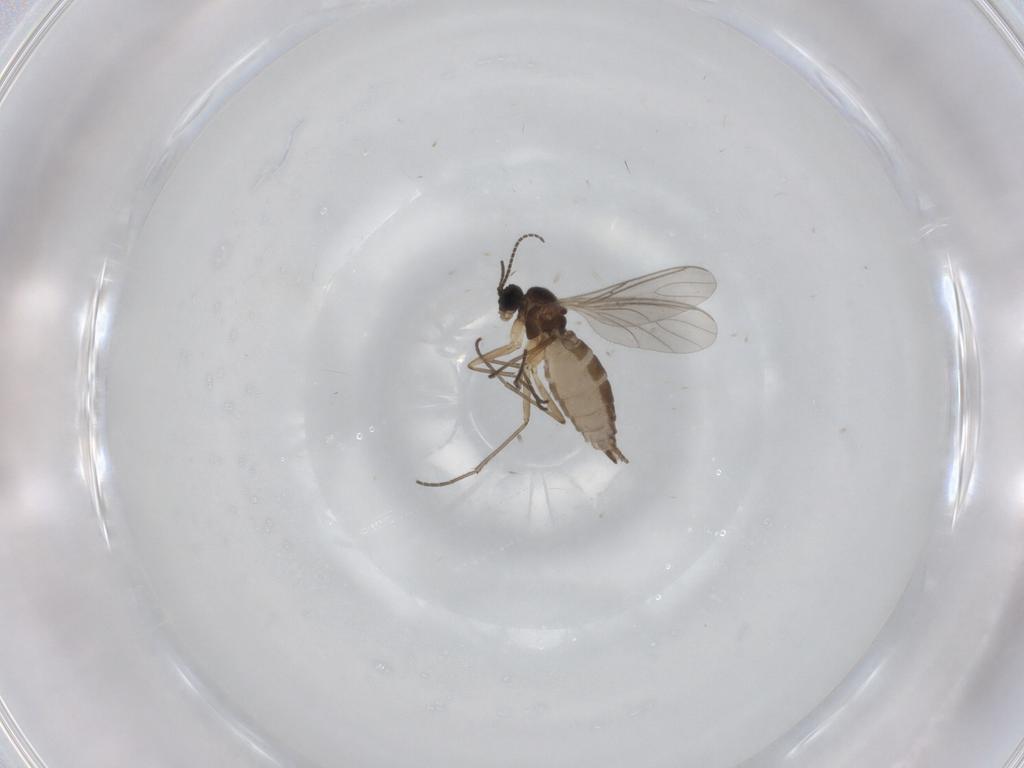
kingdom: Animalia
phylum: Arthropoda
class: Insecta
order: Diptera
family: Sciaridae
